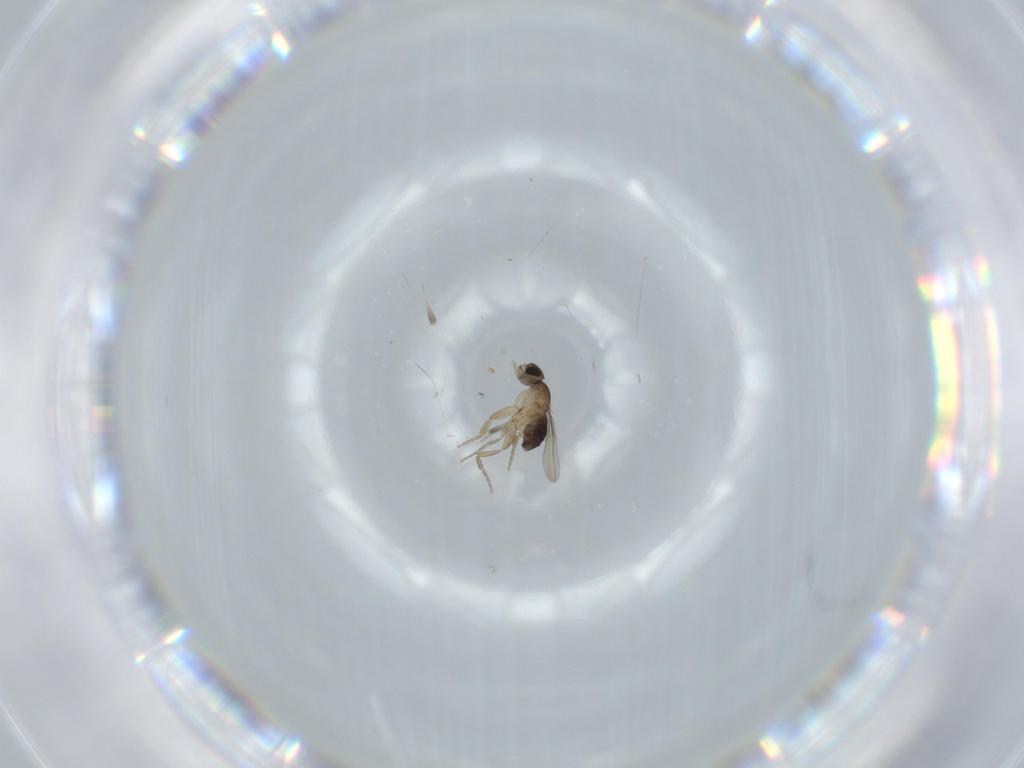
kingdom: Animalia
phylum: Arthropoda
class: Insecta
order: Diptera
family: Phoridae
